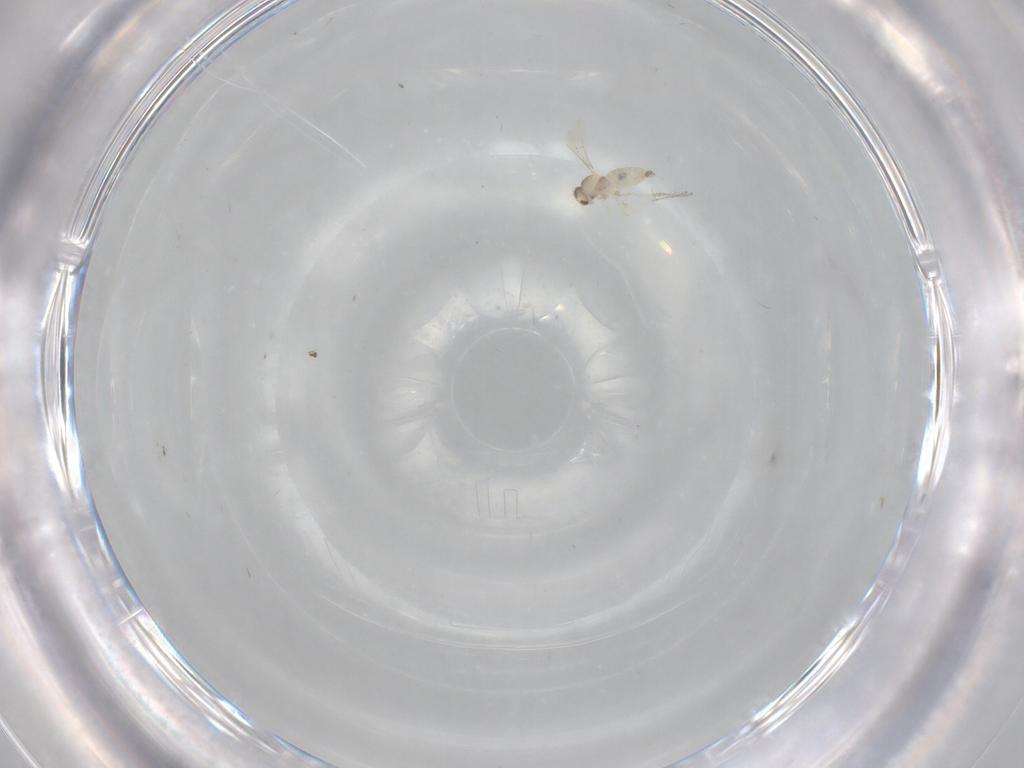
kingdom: Animalia
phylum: Arthropoda
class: Insecta
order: Diptera
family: Cecidomyiidae
